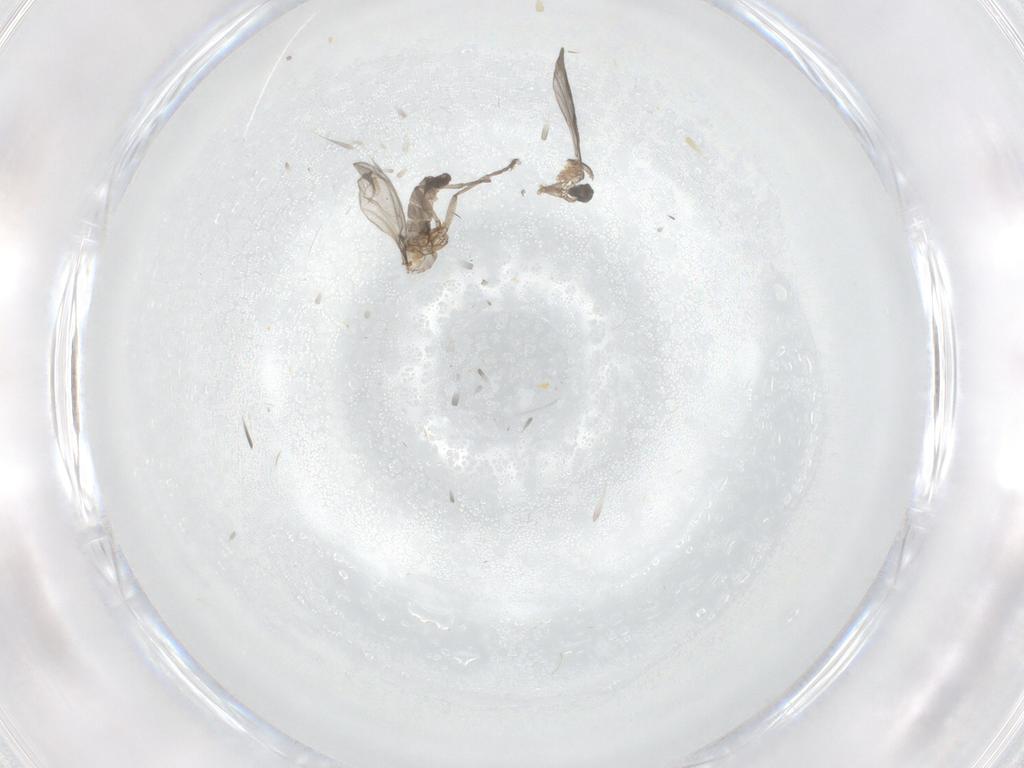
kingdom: Animalia
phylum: Arthropoda
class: Insecta
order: Diptera
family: Sciaridae
